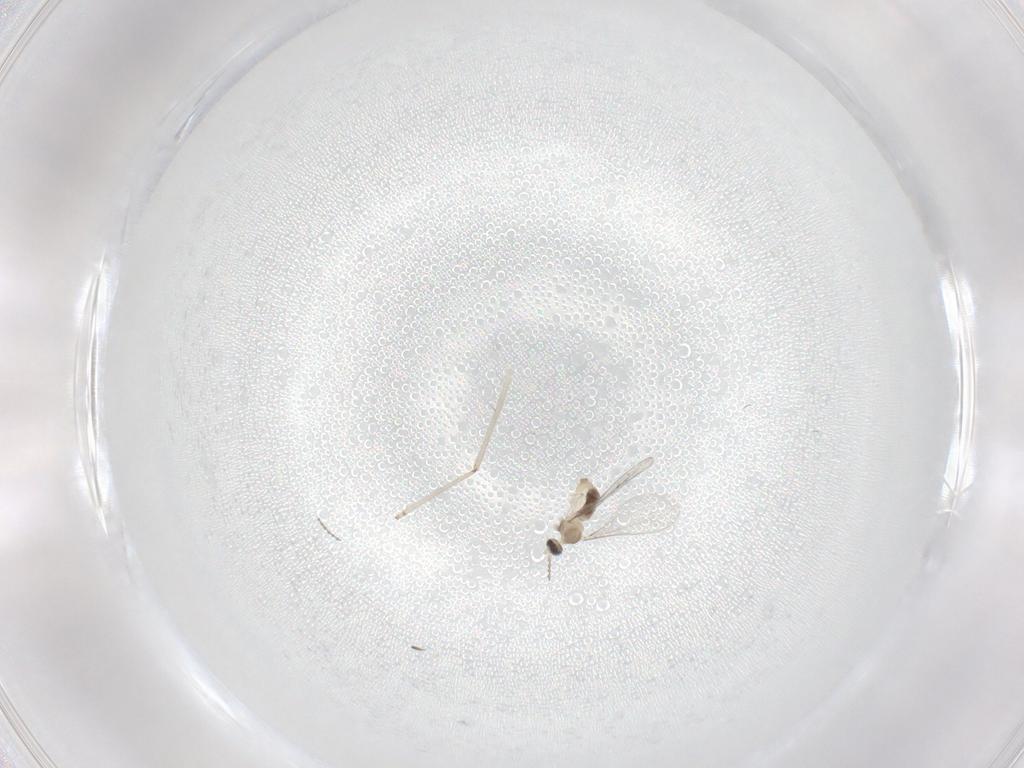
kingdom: Animalia
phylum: Arthropoda
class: Insecta
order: Diptera
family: Cecidomyiidae
